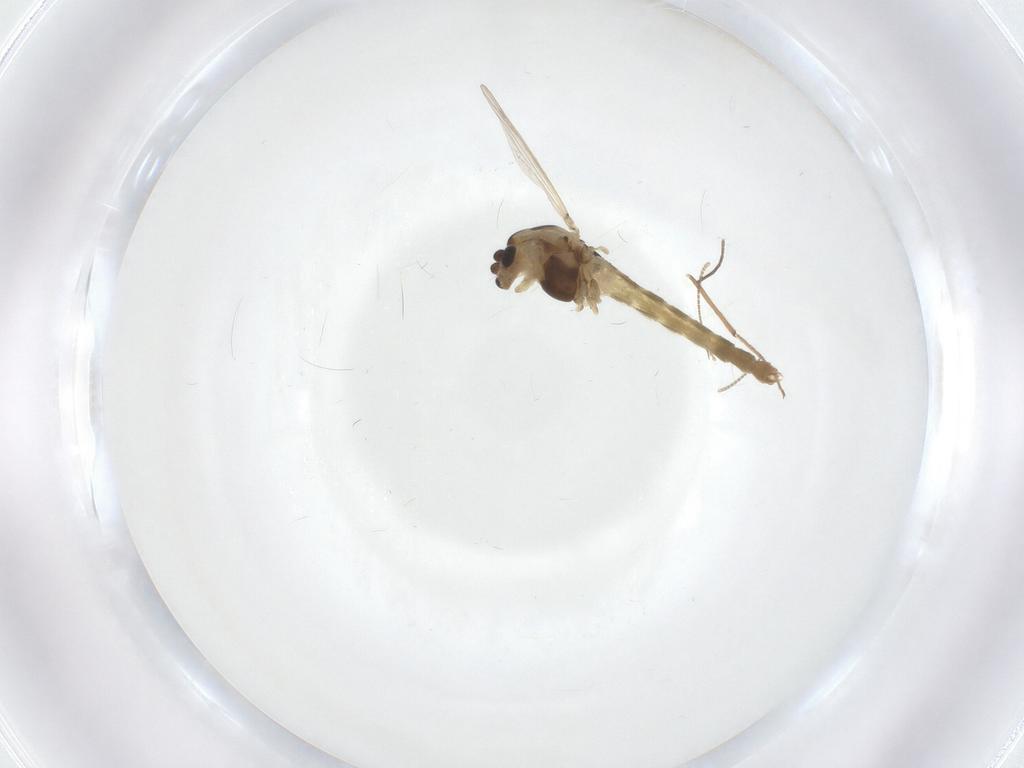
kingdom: Animalia
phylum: Arthropoda
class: Insecta
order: Diptera
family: Chironomidae
